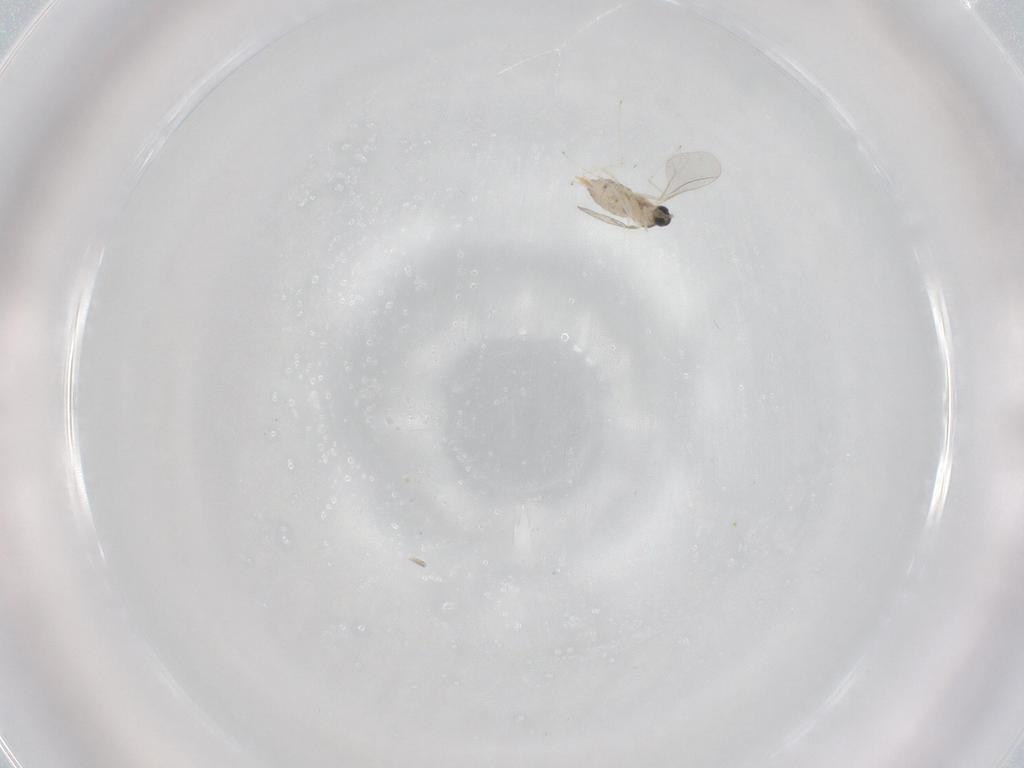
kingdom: Animalia
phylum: Arthropoda
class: Insecta
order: Diptera
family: Cecidomyiidae
